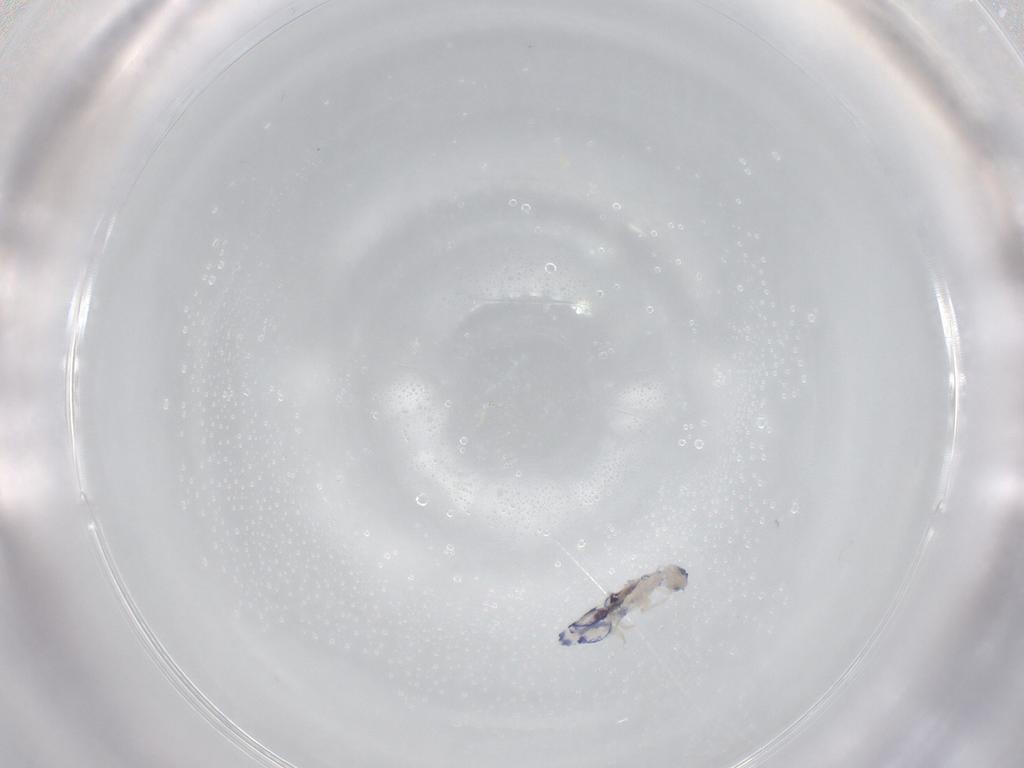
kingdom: Animalia
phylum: Arthropoda
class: Collembola
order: Entomobryomorpha
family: Entomobryidae
